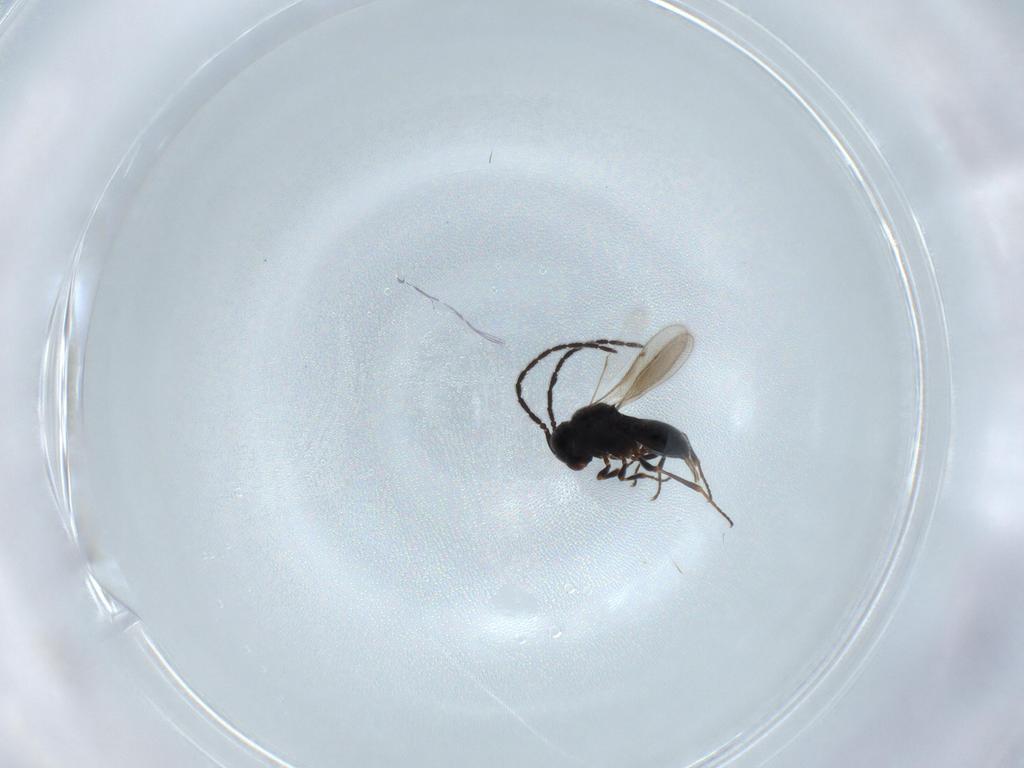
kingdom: Animalia
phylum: Arthropoda
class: Insecta
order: Hymenoptera
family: Scelionidae
